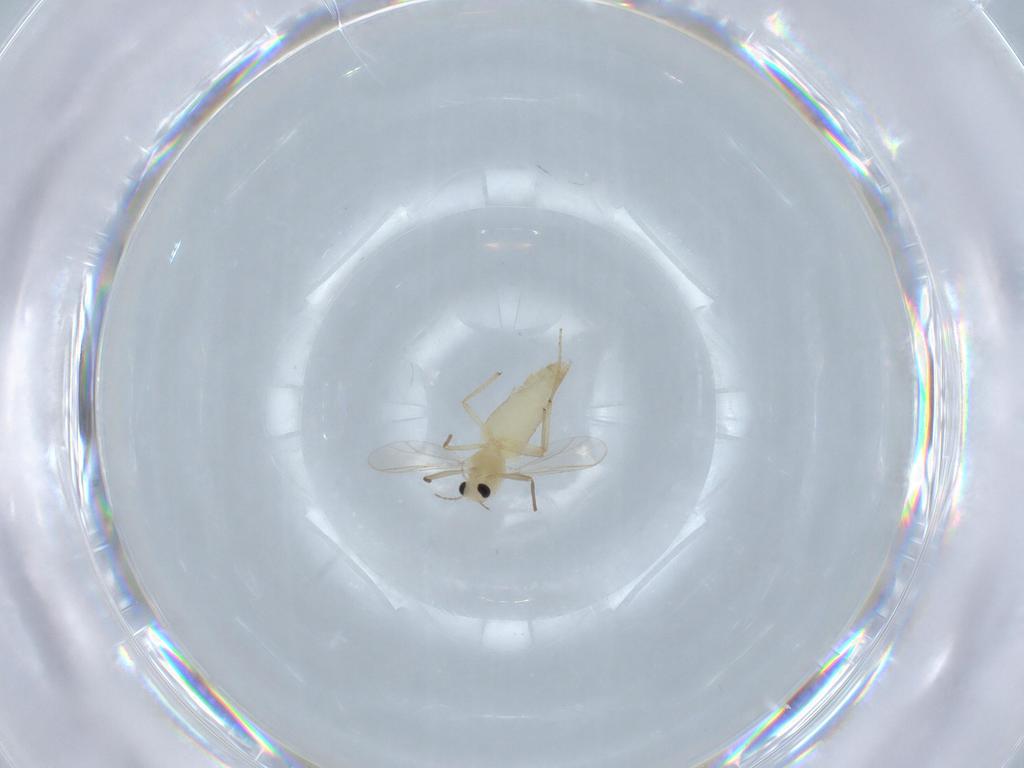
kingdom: Animalia
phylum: Arthropoda
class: Insecta
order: Diptera
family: Chironomidae
